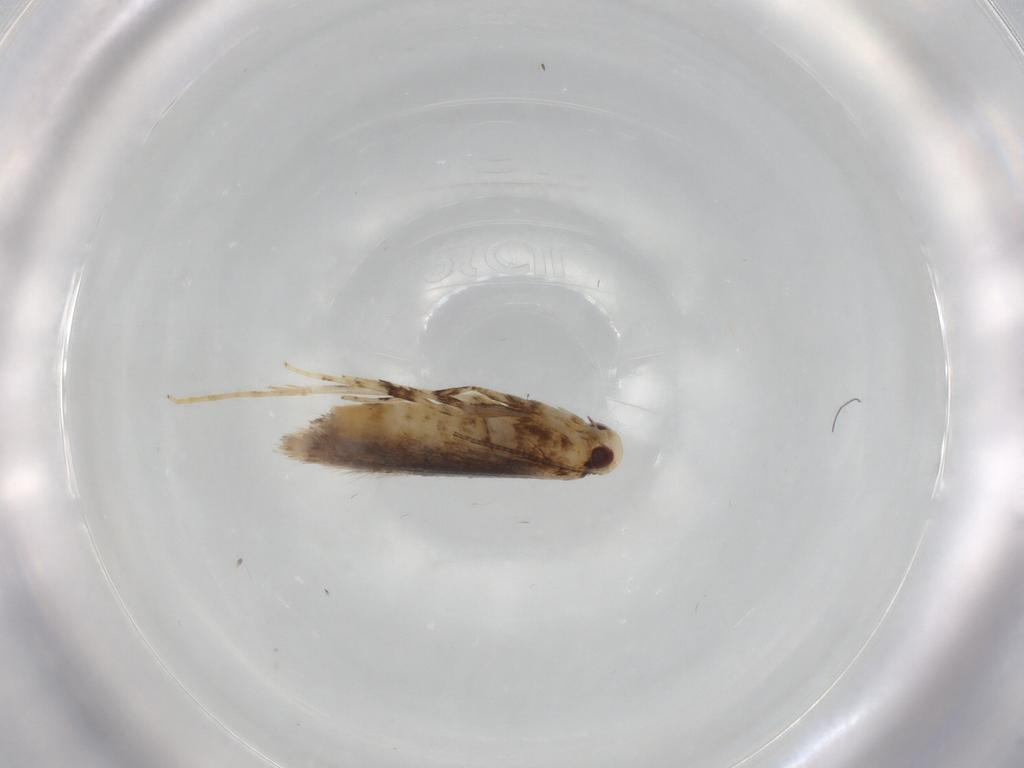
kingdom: Animalia
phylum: Arthropoda
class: Insecta
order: Lepidoptera
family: Gracillariidae
